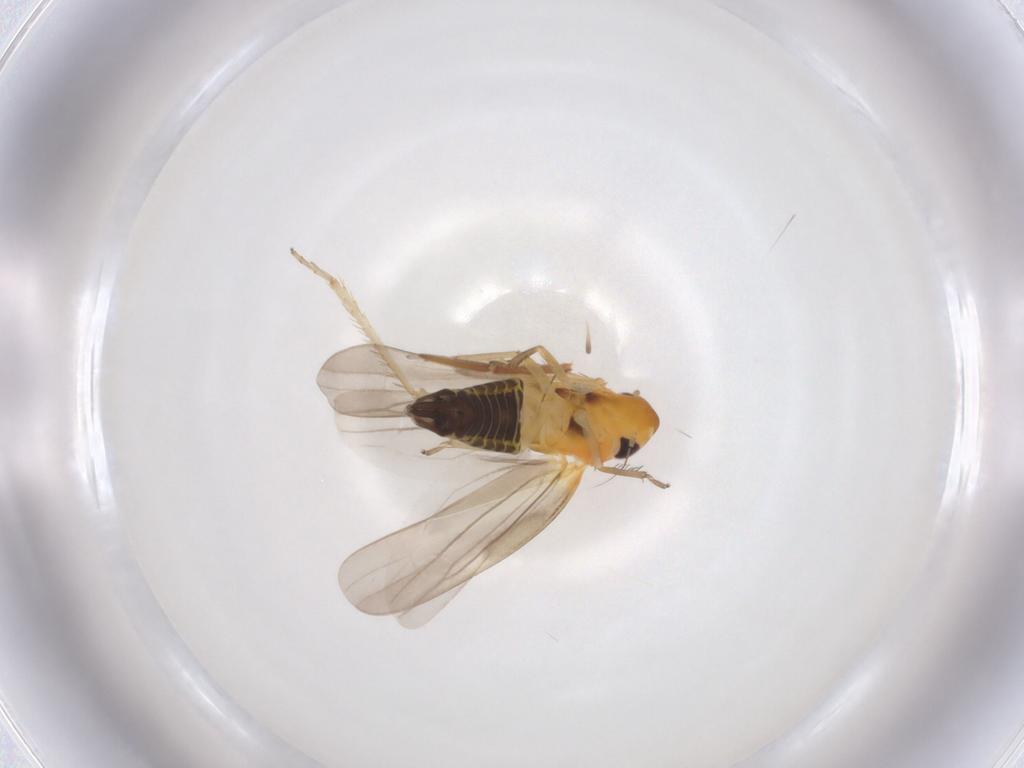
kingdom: Animalia
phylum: Arthropoda
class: Insecta
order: Hemiptera
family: Cicadellidae
